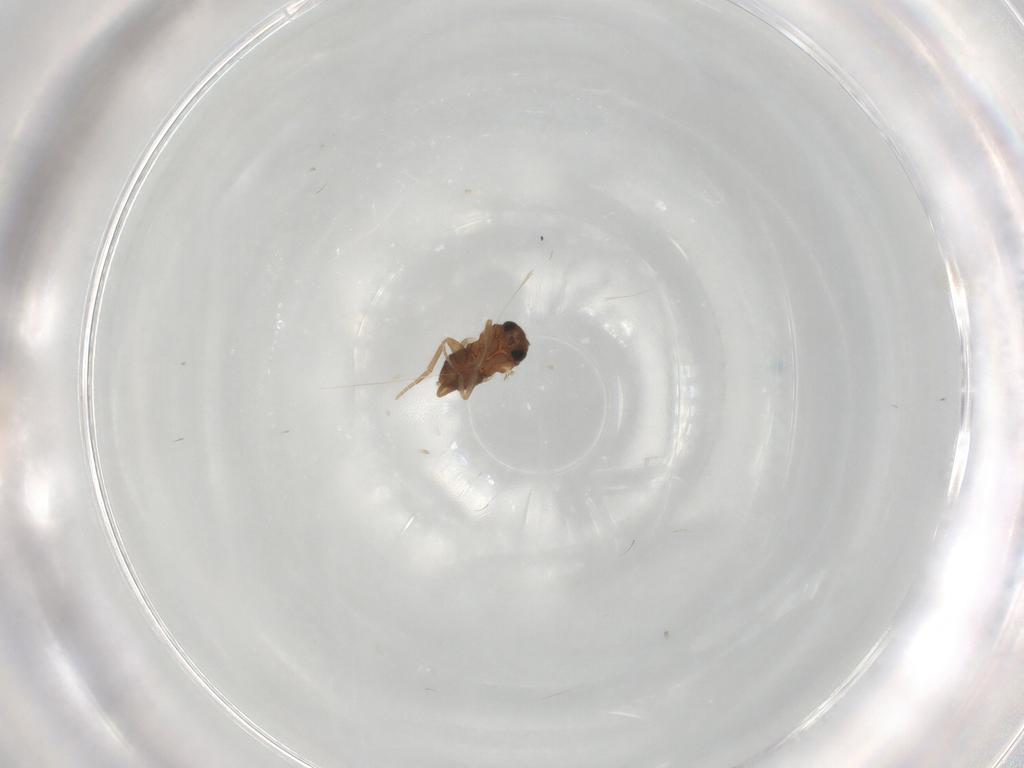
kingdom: Animalia
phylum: Arthropoda
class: Insecta
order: Diptera
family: Phoridae
